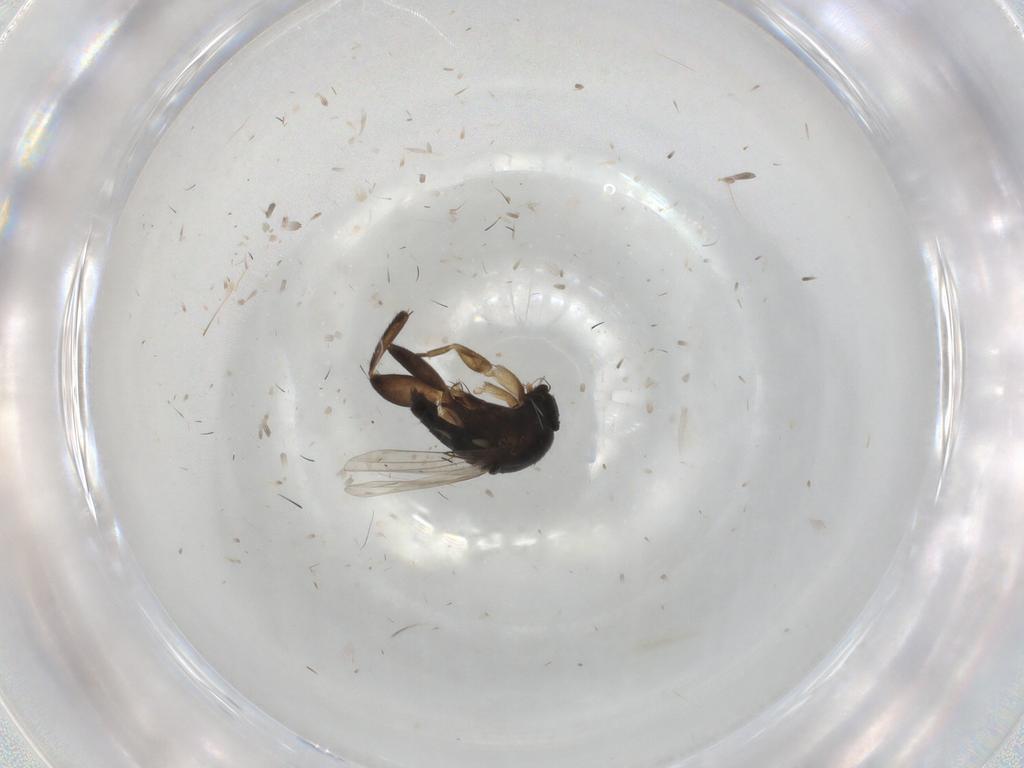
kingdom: Animalia
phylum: Arthropoda
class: Insecta
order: Diptera
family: Phoridae
